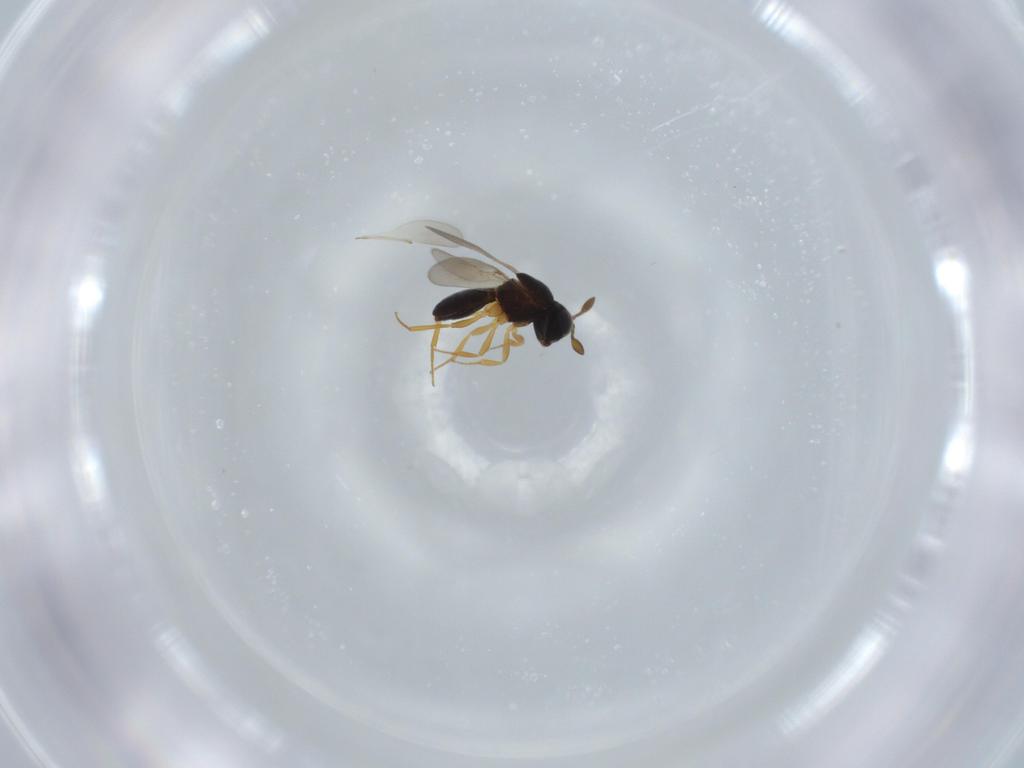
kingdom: Animalia
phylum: Arthropoda
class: Insecta
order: Hymenoptera
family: Scelionidae
